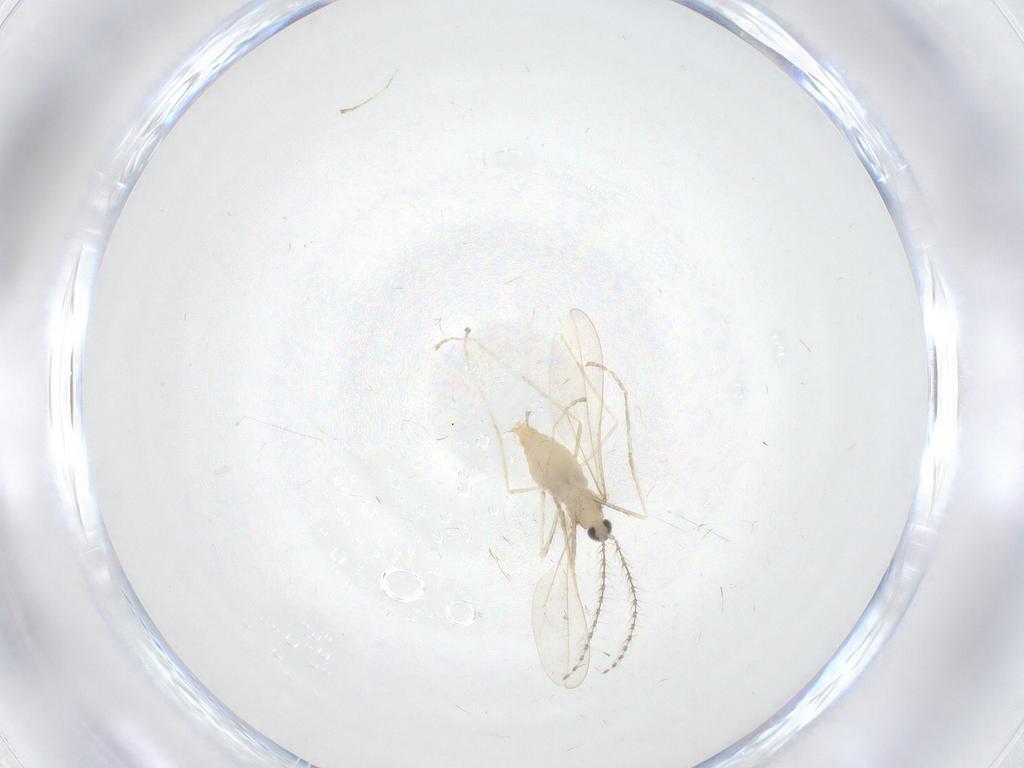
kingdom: Animalia
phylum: Arthropoda
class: Insecta
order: Diptera
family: Cecidomyiidae
